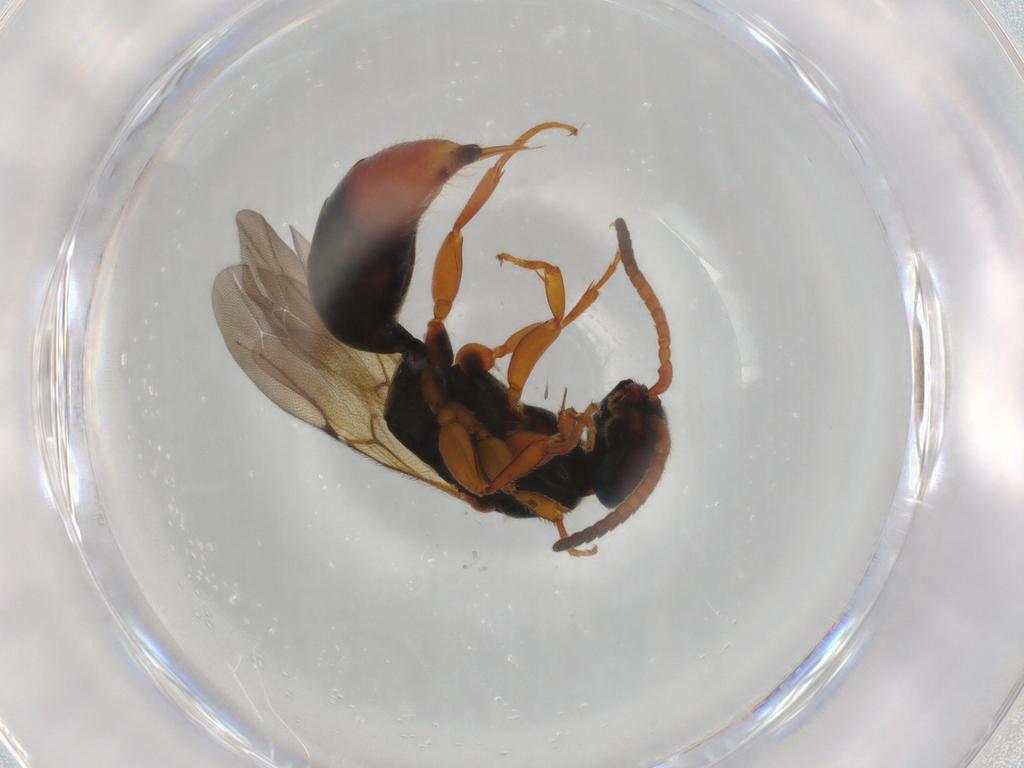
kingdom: Animalia
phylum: Arthropoda
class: Insecta
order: Hymenoptera
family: Bethylidae
